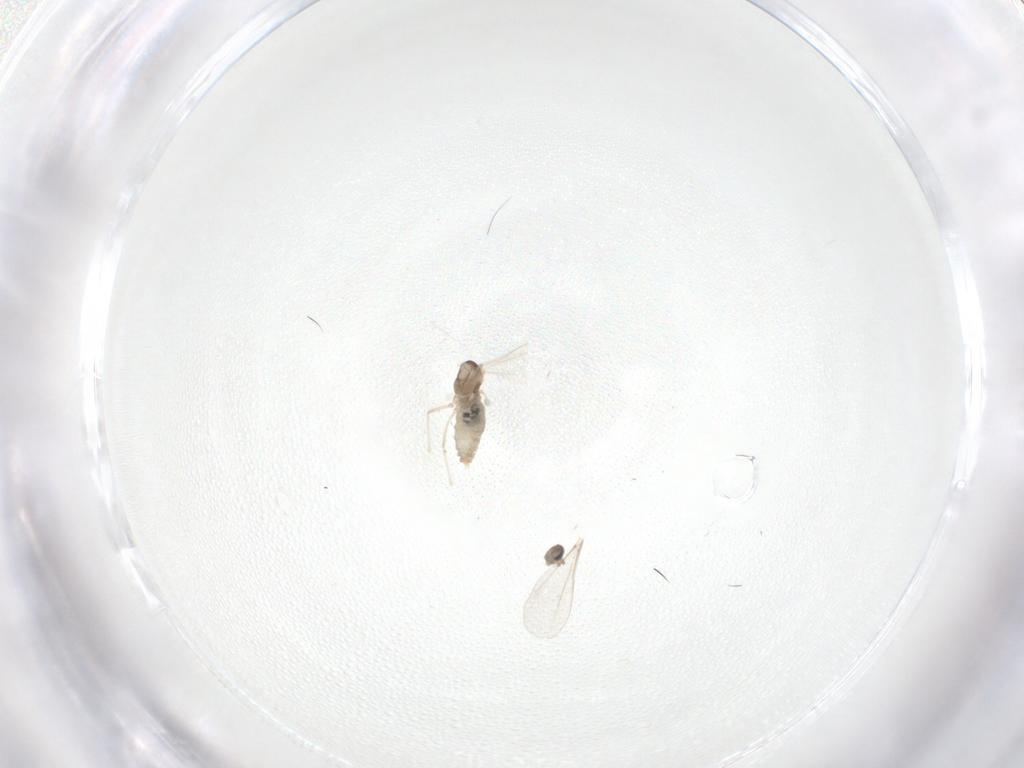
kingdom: Animalia
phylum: Arthropoda
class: Insecta
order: Diptera
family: Cecidomyiidae
